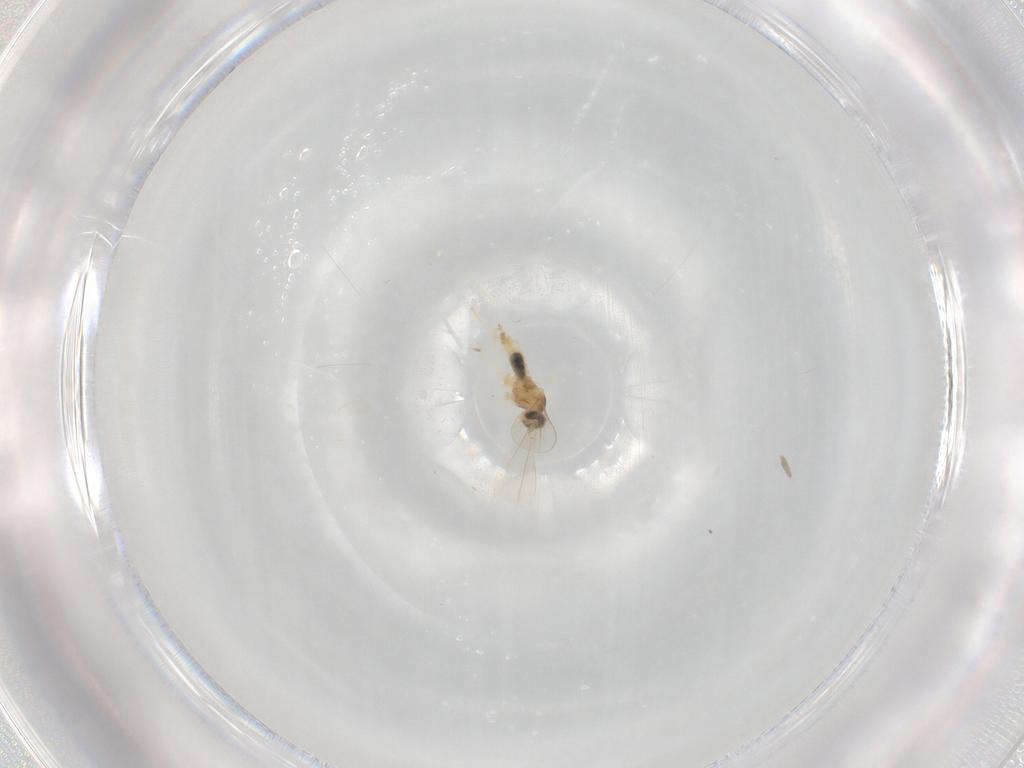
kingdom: Animalia
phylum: Arthropoda
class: Insecta
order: Diptera
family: Cecidomyiidae
